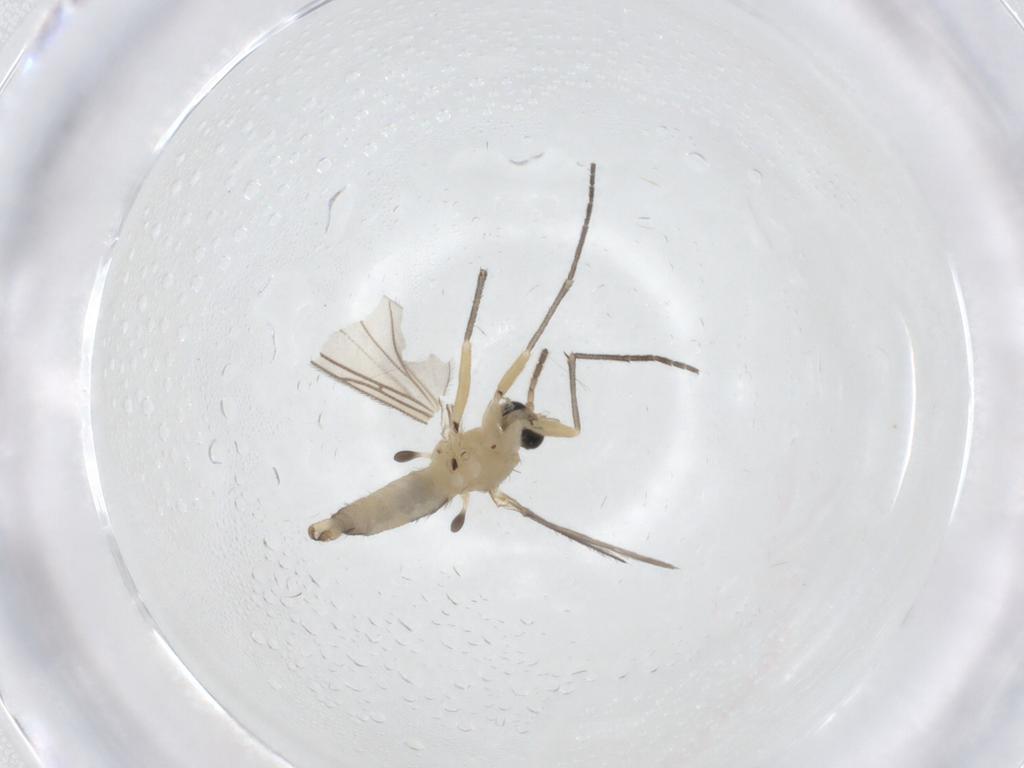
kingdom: Animalia
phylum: Arthropoda
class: Insecta
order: Diptera
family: Sciaridae
